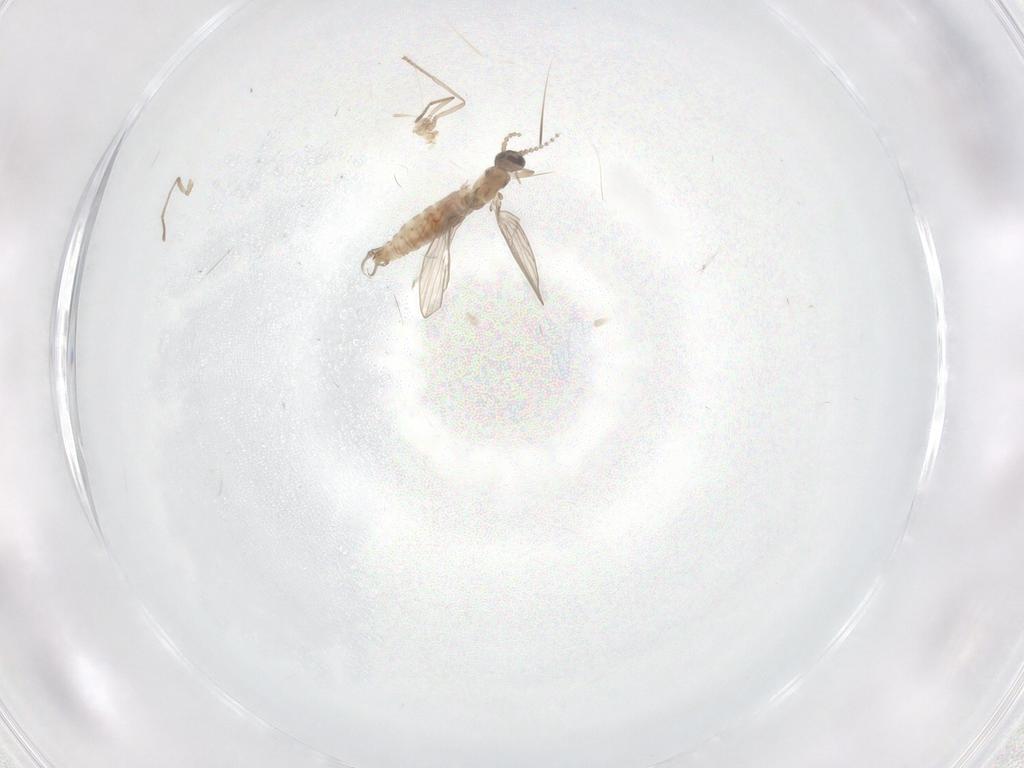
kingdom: Animalia
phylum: Arthropoda
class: Insecta
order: Diptera
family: Psychodidae
